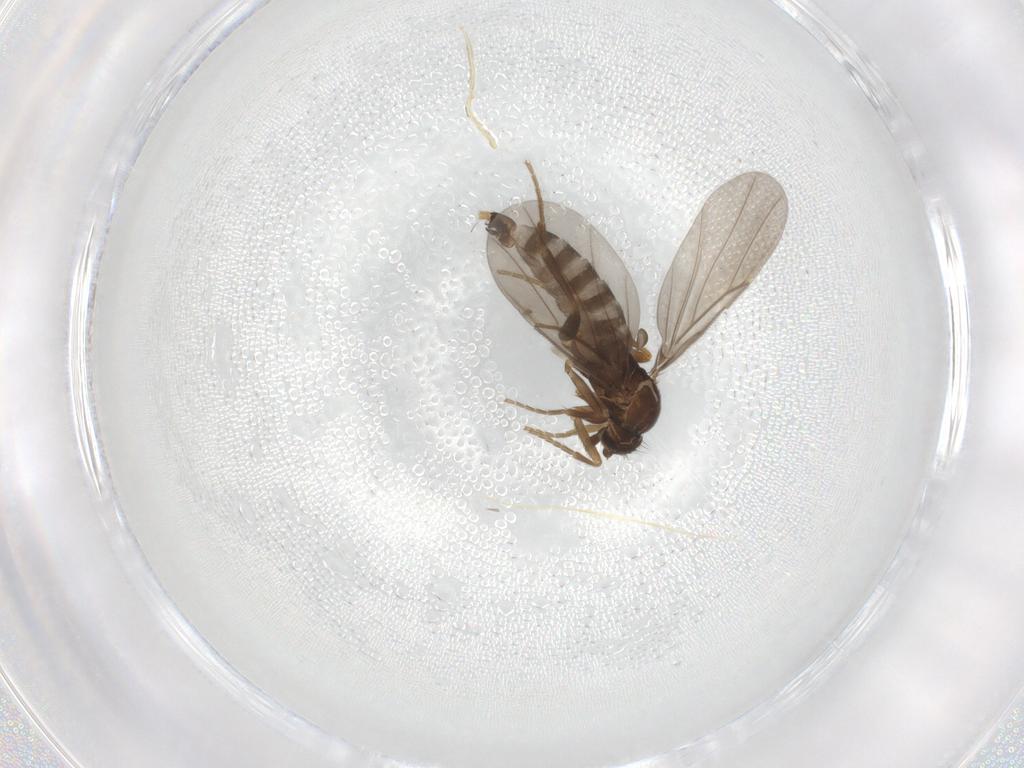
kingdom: Animalia
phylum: Arthropoda
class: Insecta
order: Diptera
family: Cecidomyiidae
